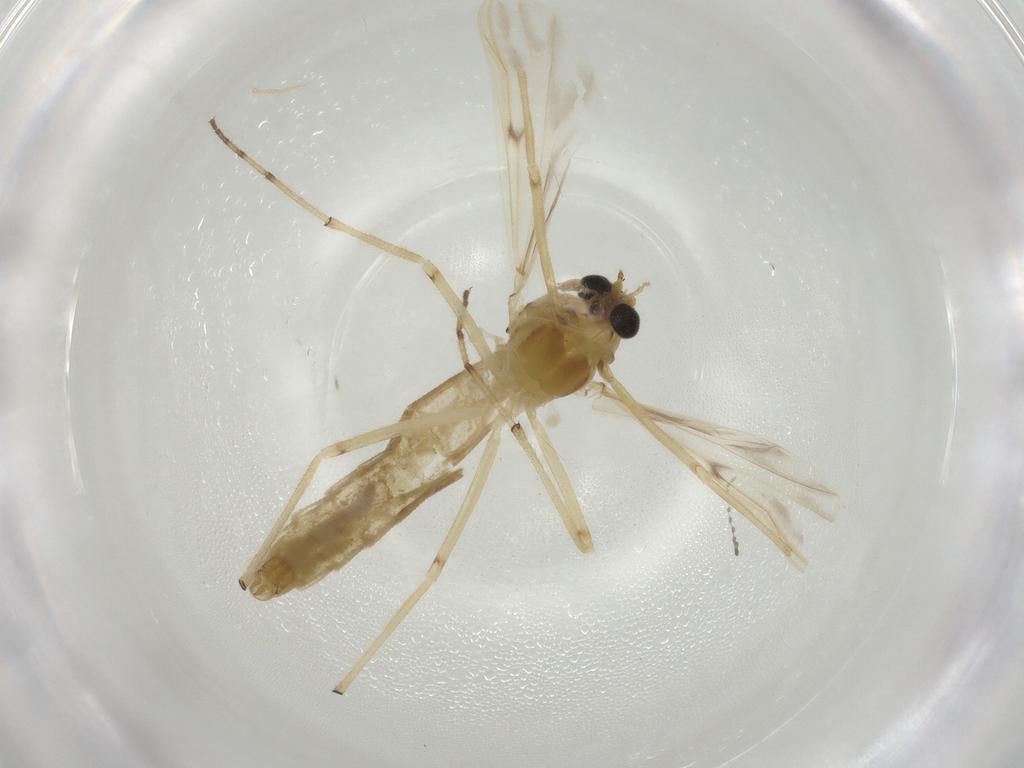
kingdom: Animalia
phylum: Arthropoda
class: Insecta
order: Diptera
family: Sciaridae
